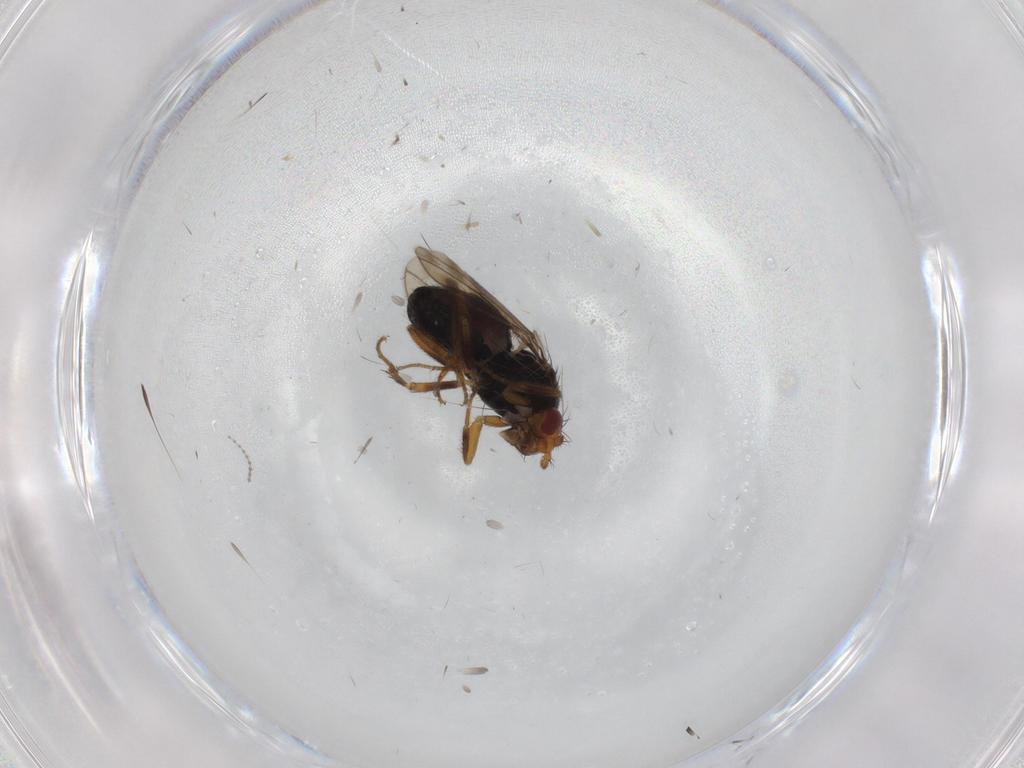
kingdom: Animalia
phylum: Arthropoda
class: Insecta
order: Diptera
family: Sphaeroceridae
